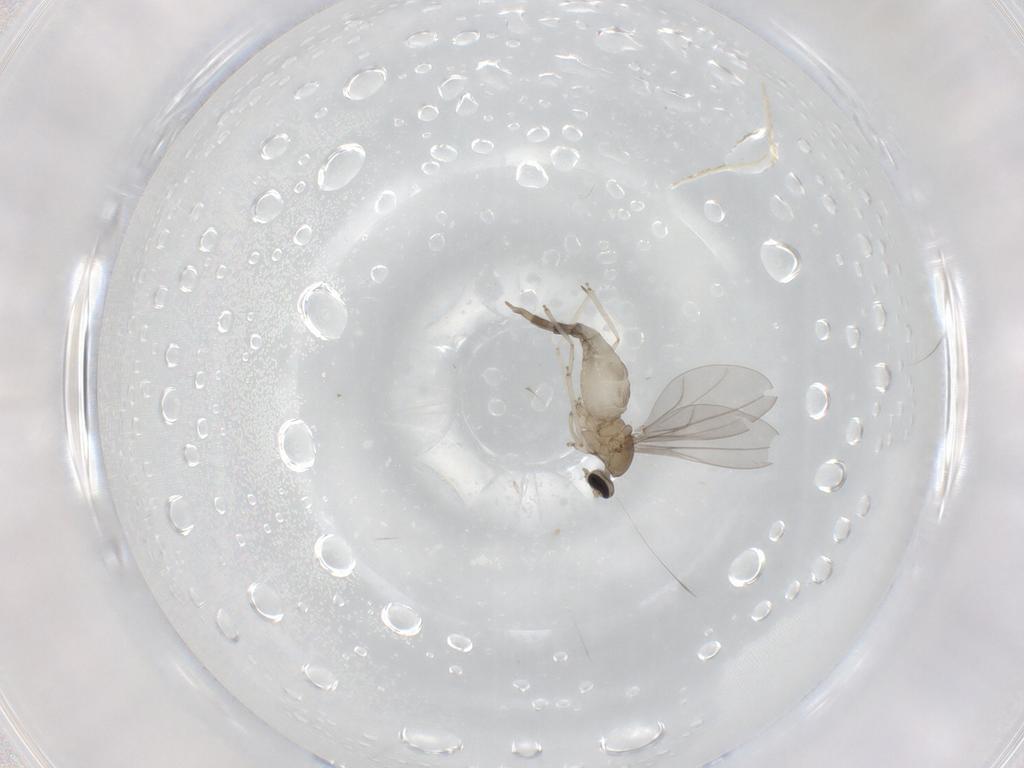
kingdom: Animalia
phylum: Arthropoda
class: Insecta
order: Diptera
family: Cecidomyiidae
